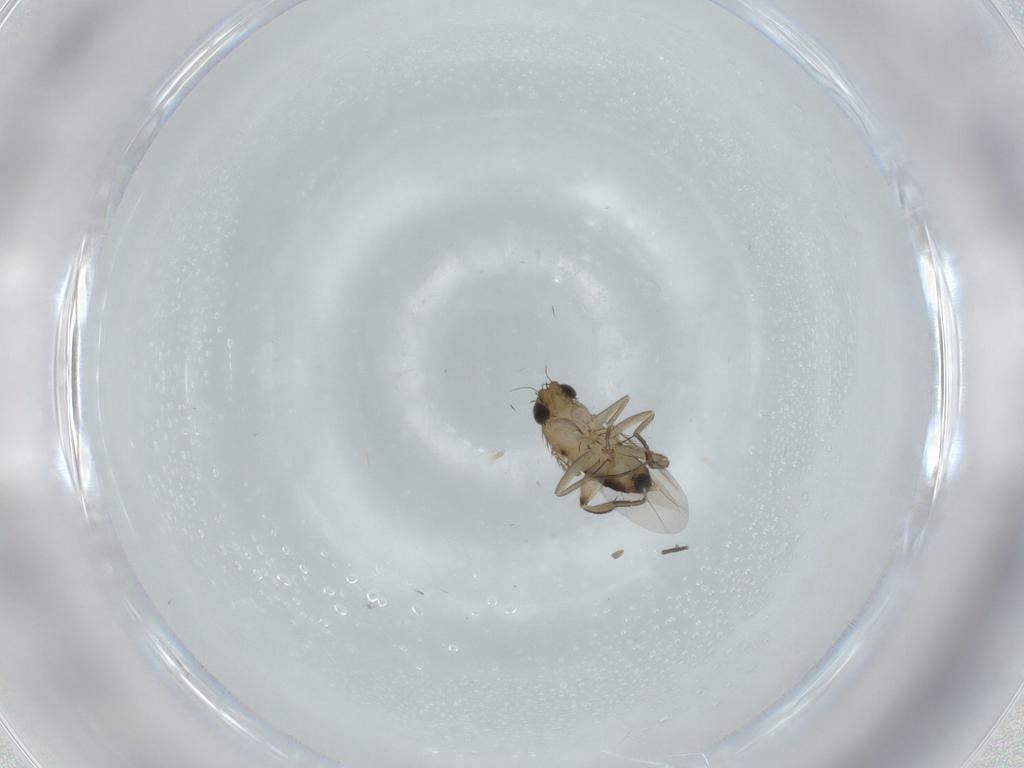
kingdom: Animalia
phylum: Arthropoda
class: Insecta
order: Diptera
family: Phoridae
